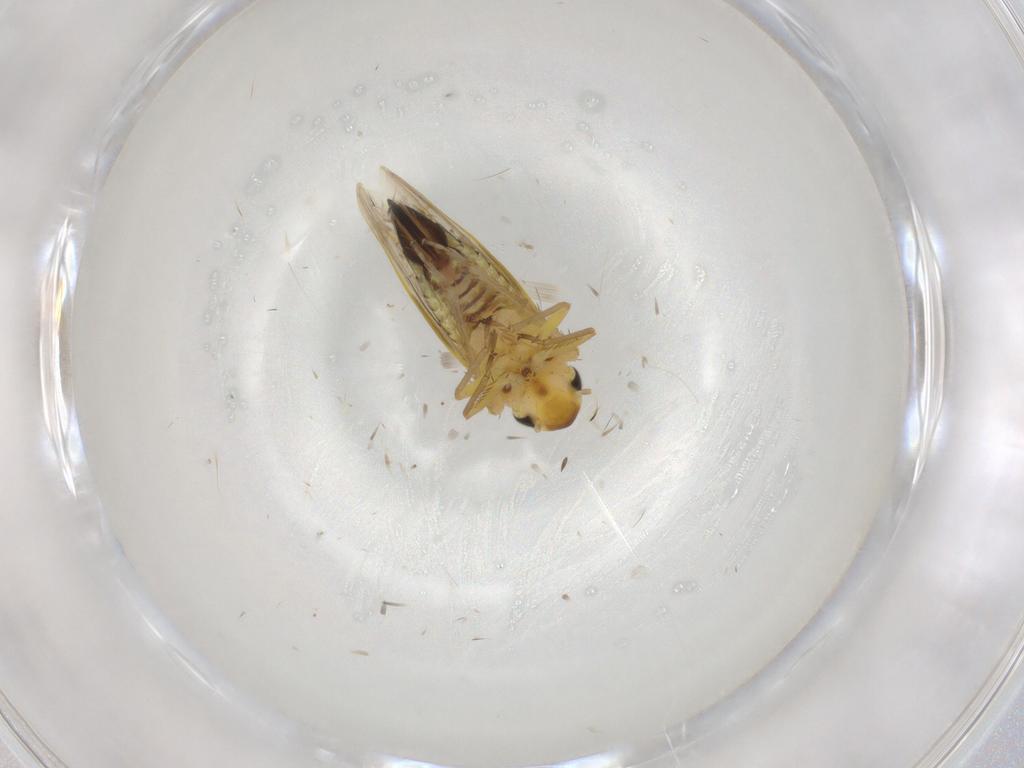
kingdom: Animalia
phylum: Arthropoda
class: Insecta
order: Hemiptera
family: Cicadellidae
